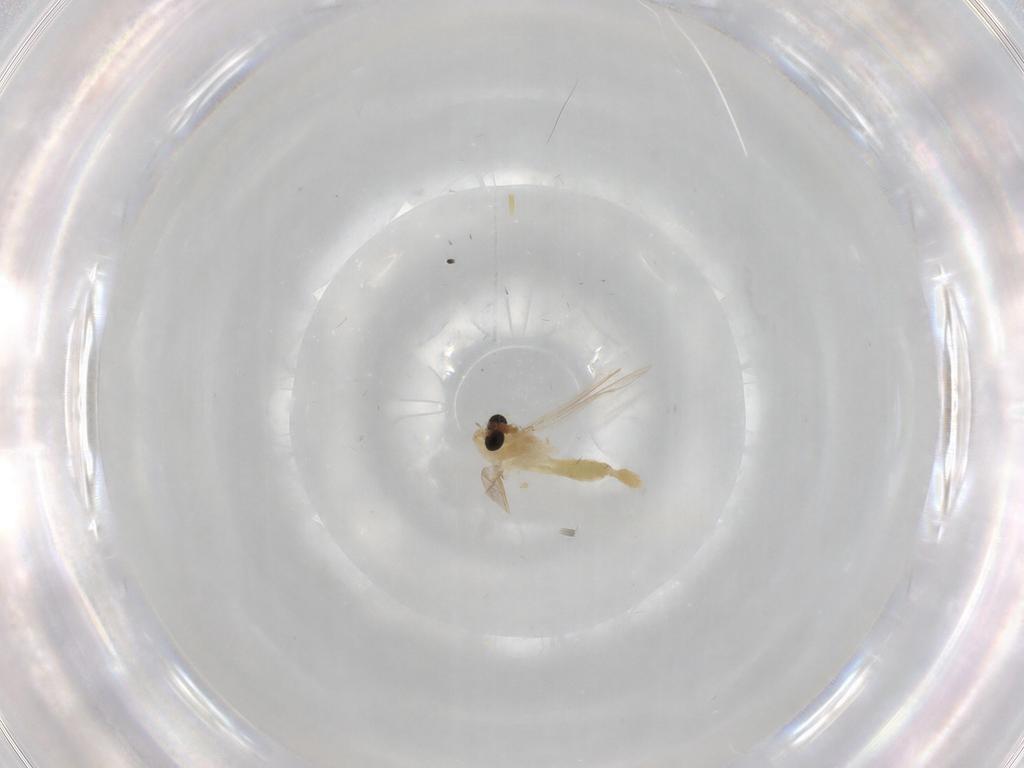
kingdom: Animalia
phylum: Arthropoda
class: Insecta
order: Diptera
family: Chironomidae
